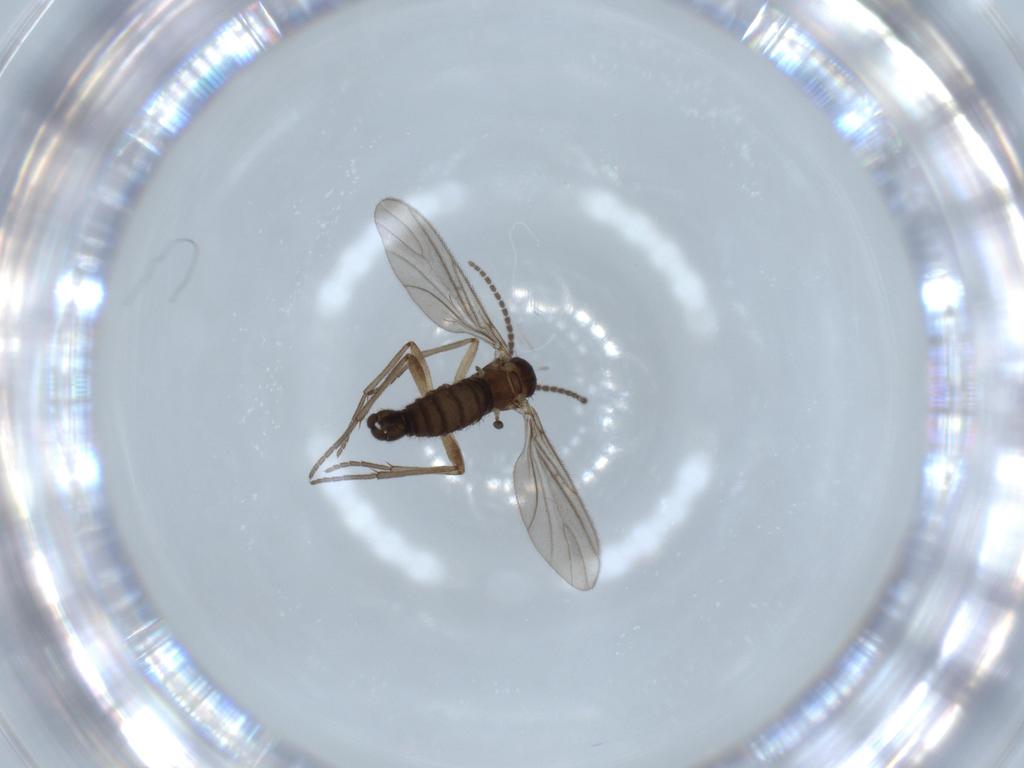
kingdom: Animalia
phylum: Arthropoda
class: Insecta
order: Diptera
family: Sciaridae
